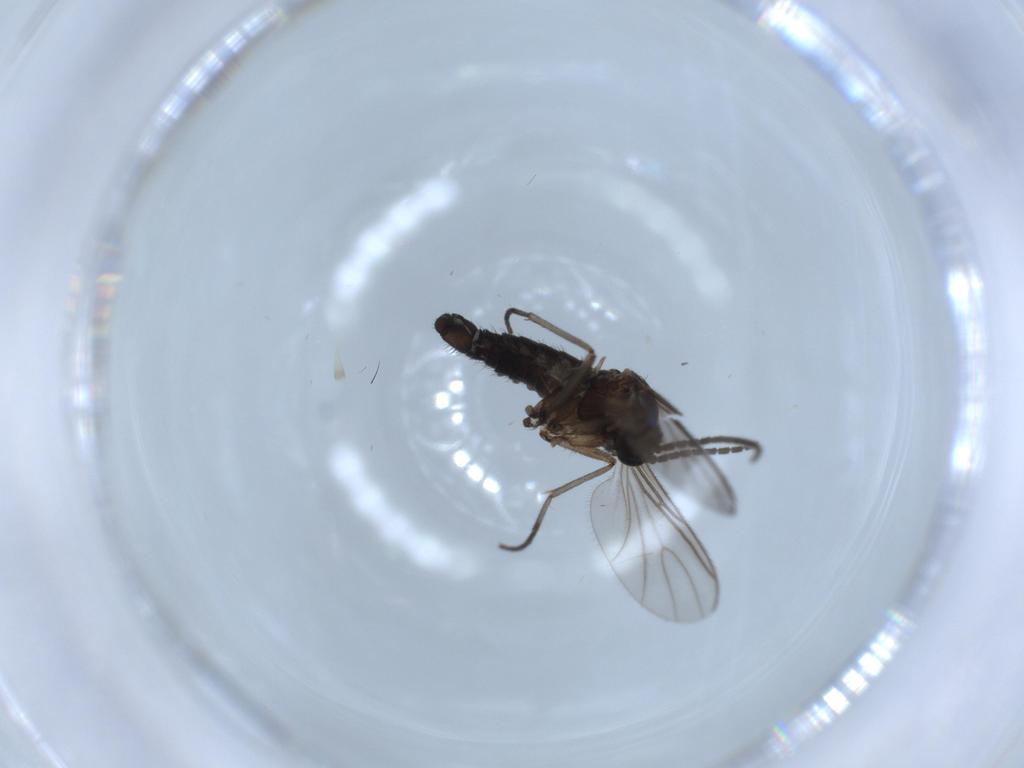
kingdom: Animalia
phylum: Arthropoda
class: Insecta
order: Diptera
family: Sciaridae
